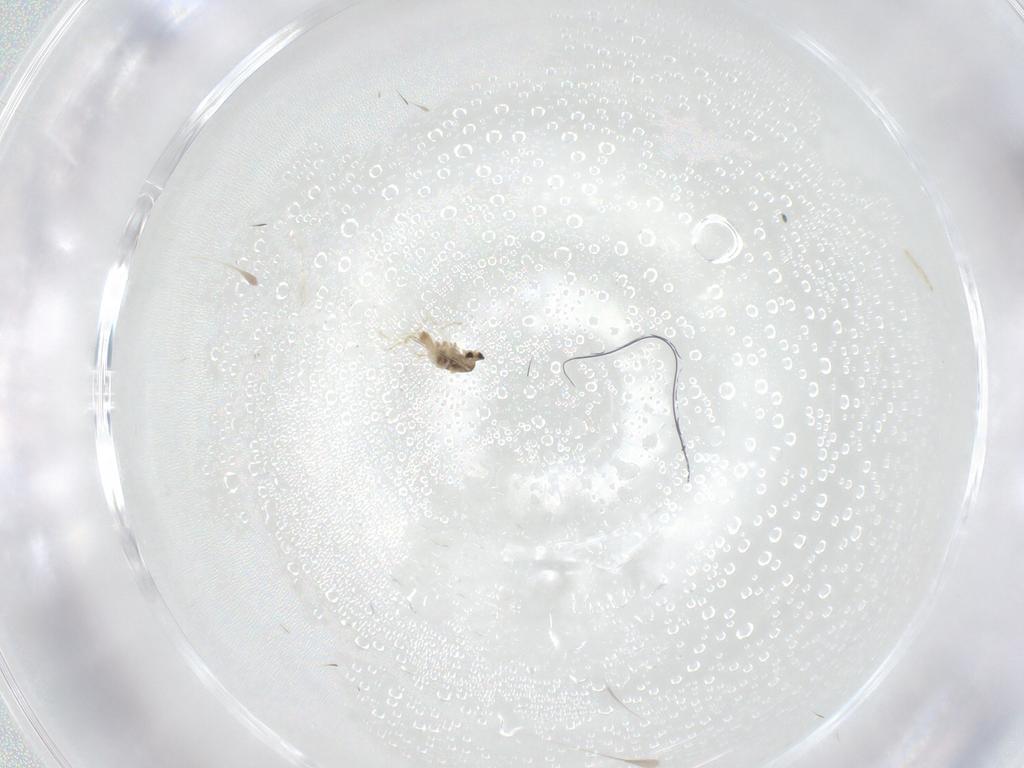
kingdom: Animalia
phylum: Arthropoda
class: Insecta
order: Diptera
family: Cecidomyiidae
